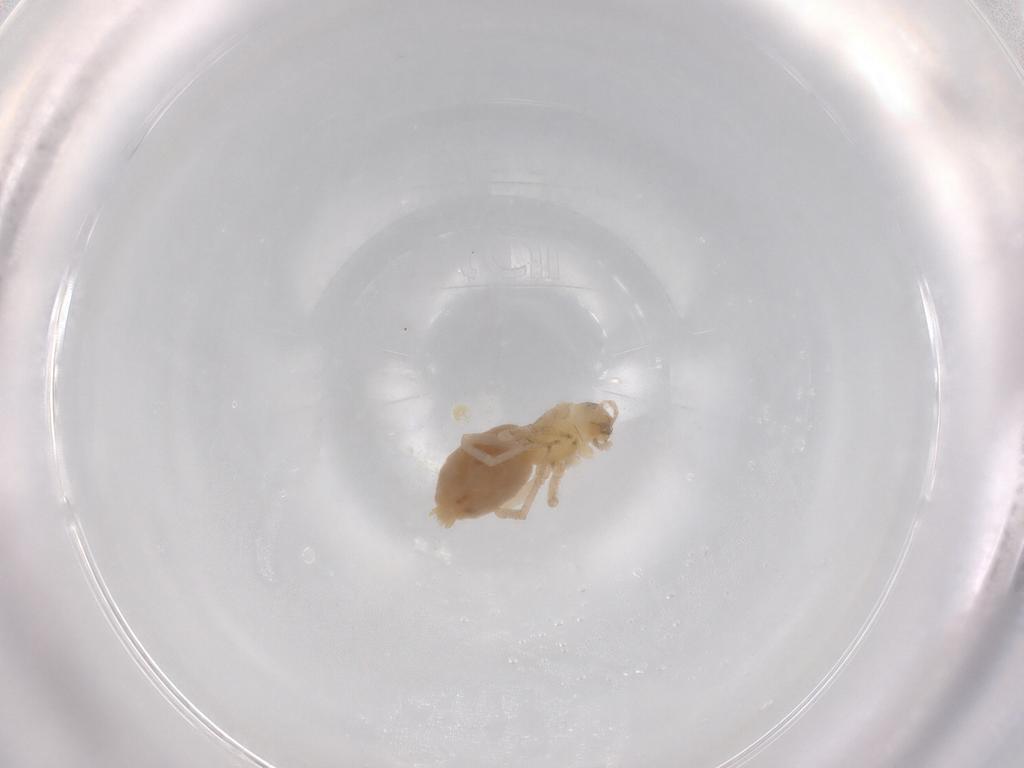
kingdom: Animalia
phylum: Arthropoda
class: Arachnida
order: Araneae
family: Anyphaenidae
